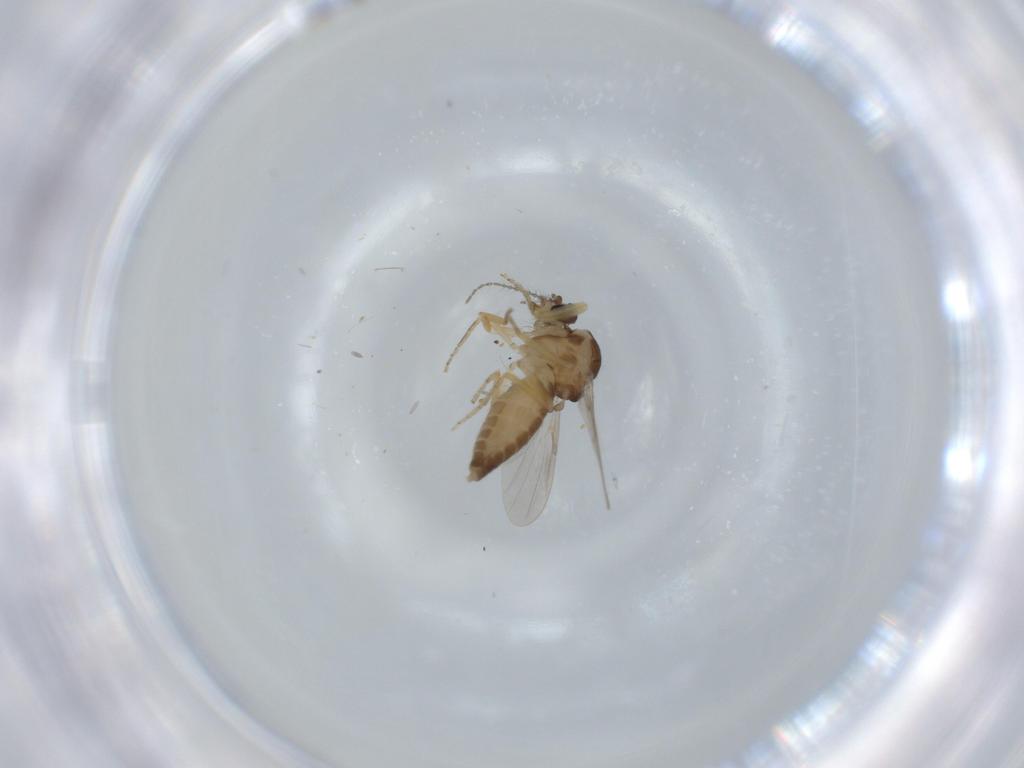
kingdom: Animalia
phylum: Arthropoda
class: Insecta
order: Diptera
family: Ceratopogonidae
